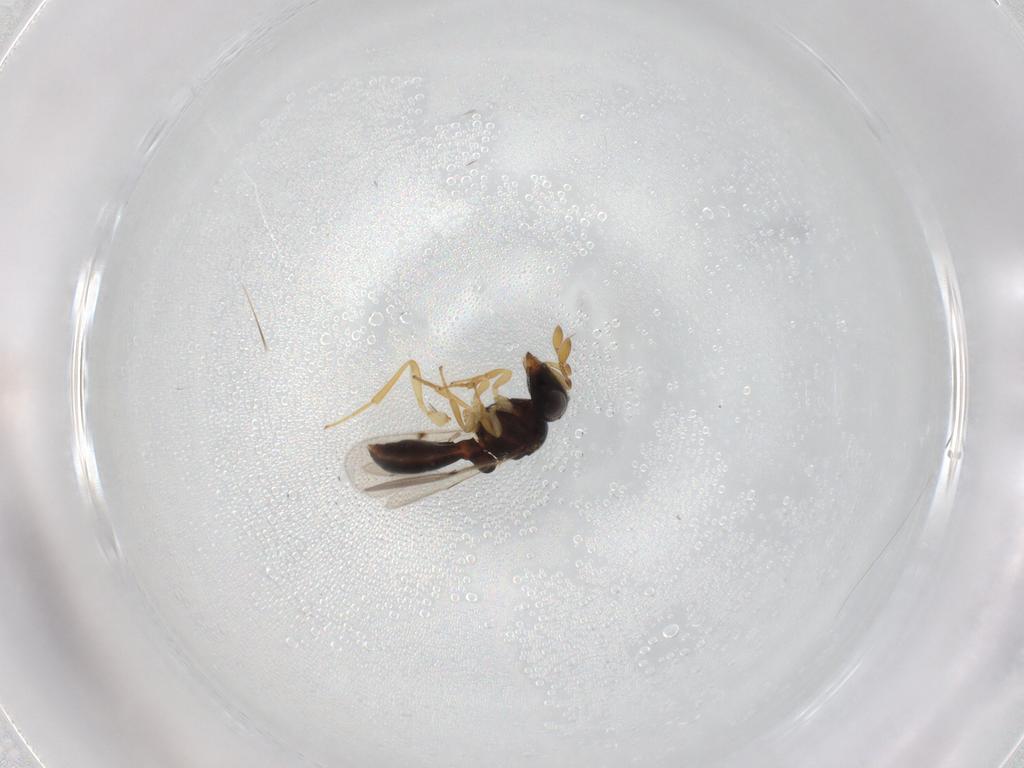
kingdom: Animalia
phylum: Arthropoda
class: Insecta
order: Hymenoptera
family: Scelionidae
